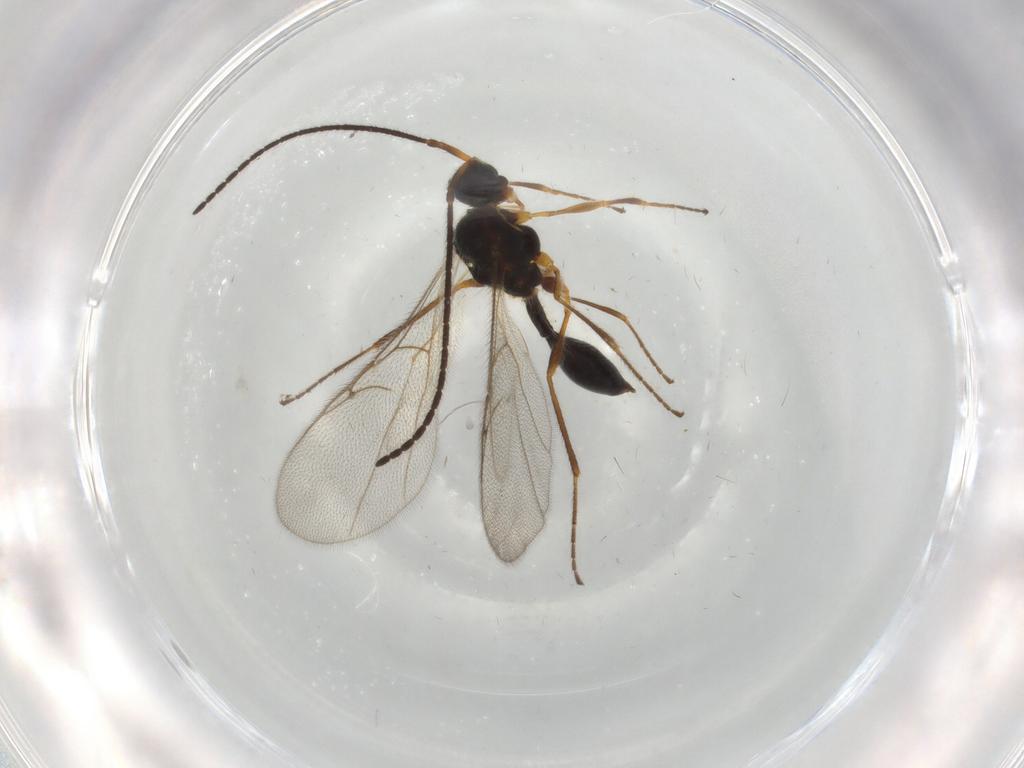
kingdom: Animalia
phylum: Arthropoda
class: Insecta
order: Hymenoptera
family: Diapriidae
